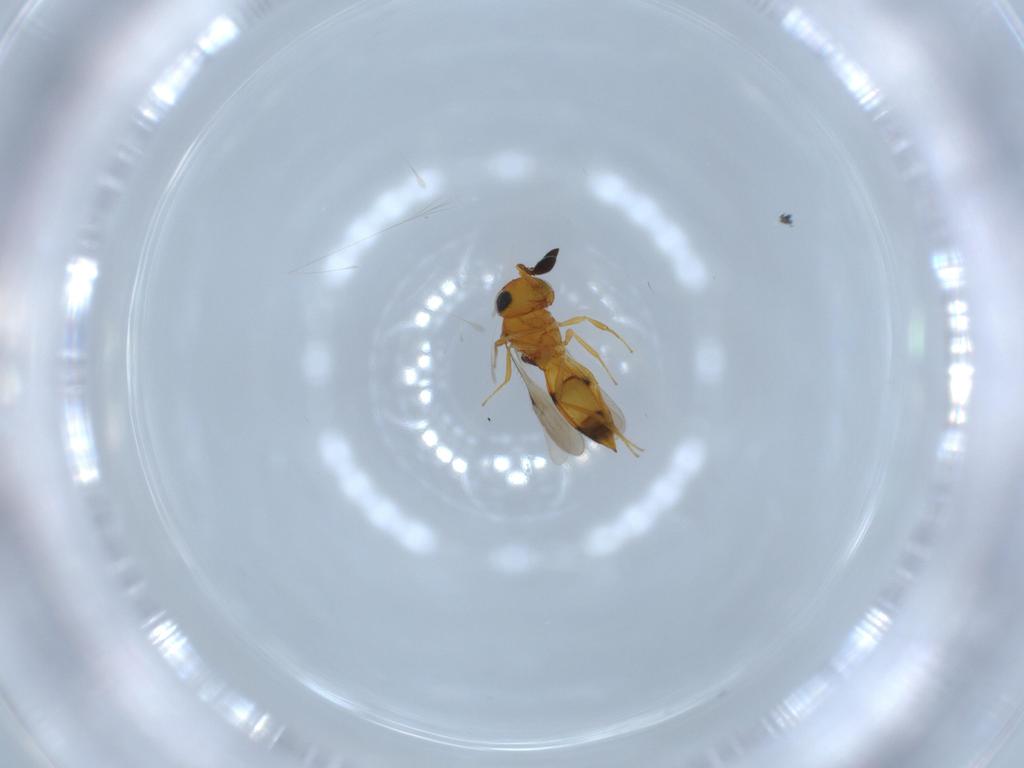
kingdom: Animalia
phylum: Arthropoda
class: Insecta
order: Hymenoptera
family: Scelionidae
